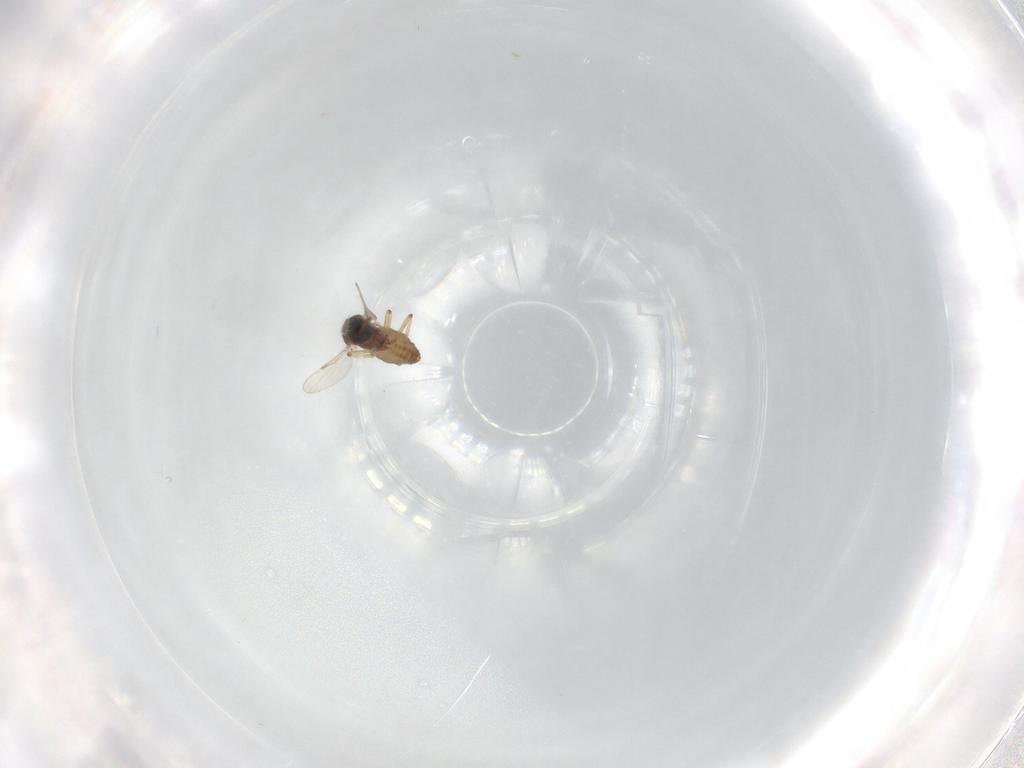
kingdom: Animalia
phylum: Arthropoda
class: Insecta
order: Diptera
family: Ceratopogonidae
